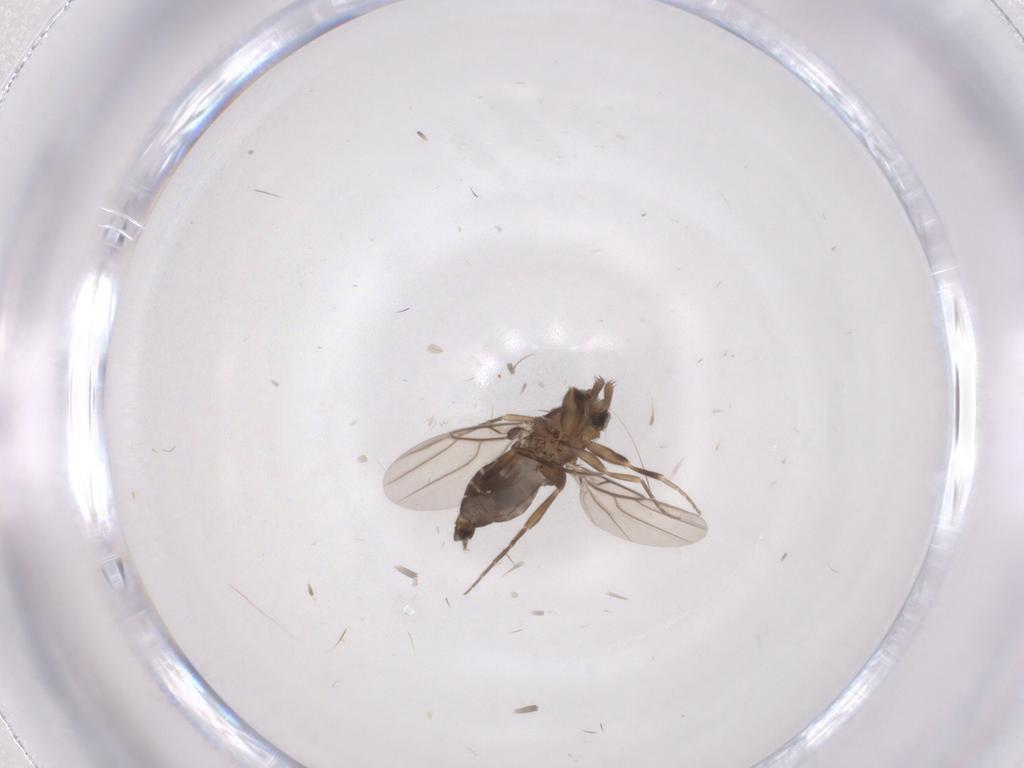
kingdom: Animalia
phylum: Arthropoda
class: Insecta
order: Diptera
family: Phoridae
